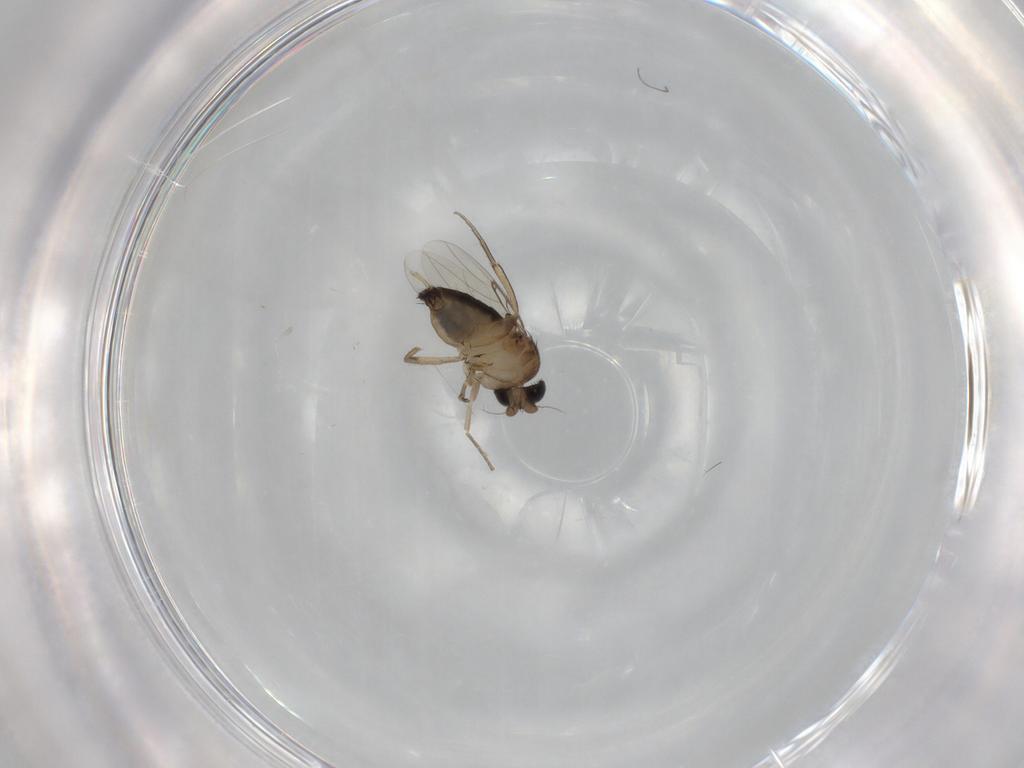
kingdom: Animalia
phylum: Arthropoda
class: Insecta
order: Diptera
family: Phoridae
